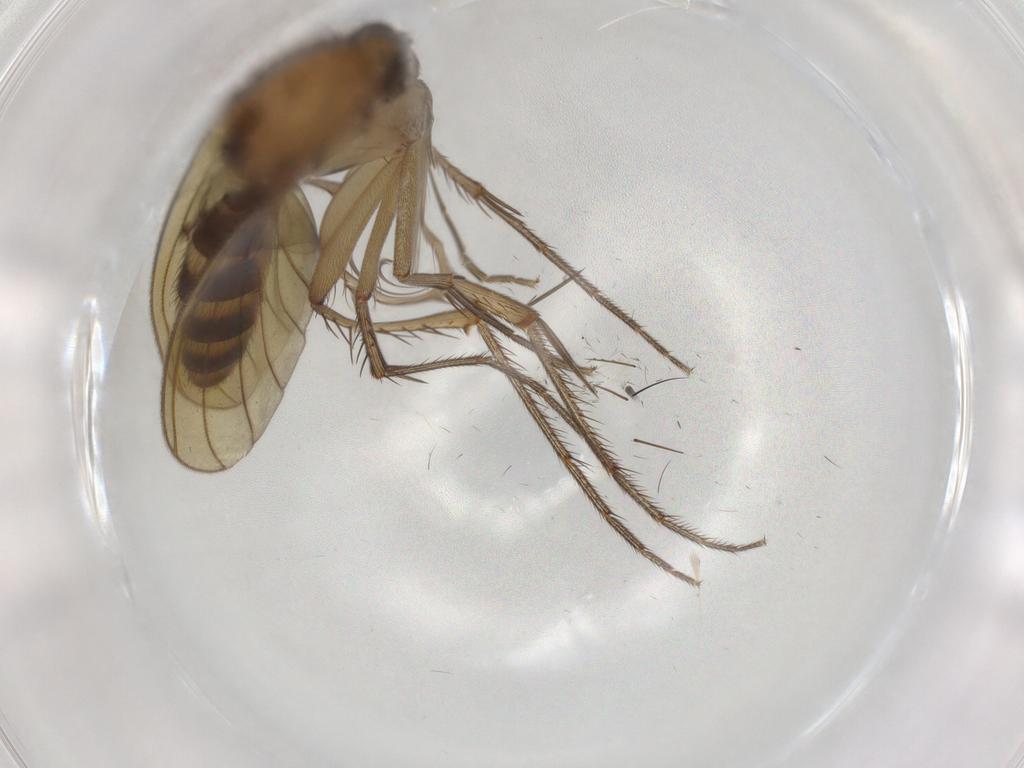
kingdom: Animalia
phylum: Arthropoda
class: Insecta
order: Diptera
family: Mycetophilidae
